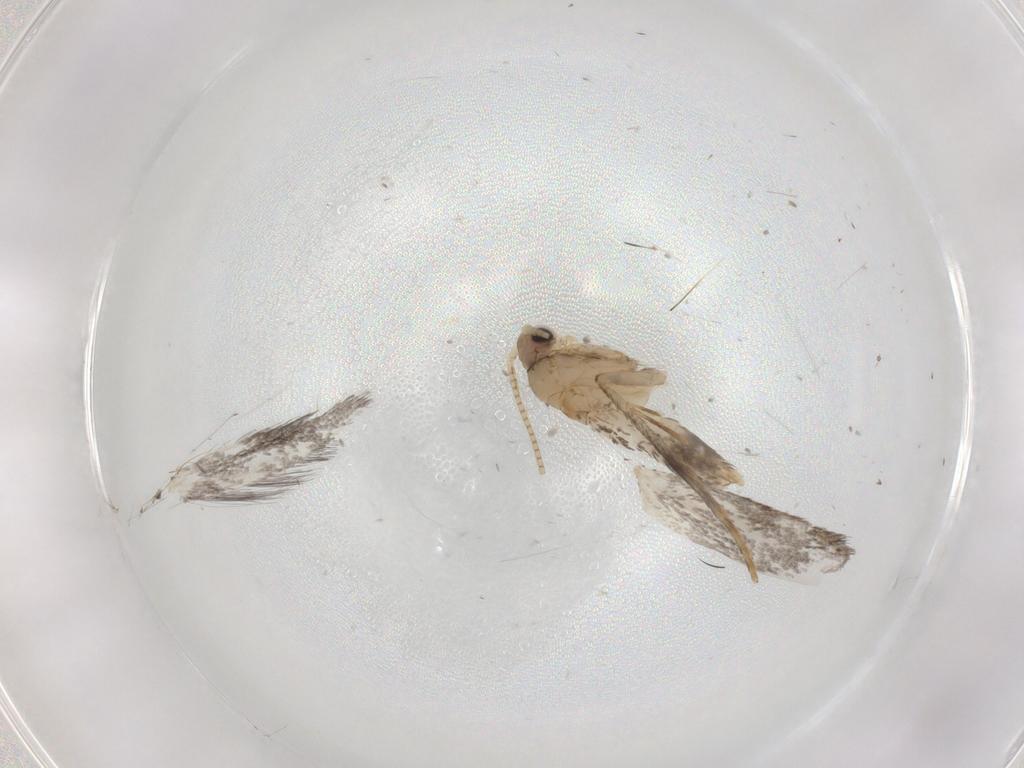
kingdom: Animalia
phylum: Arthropoda
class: Insecta
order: Lepidoptera
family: Tineidae
